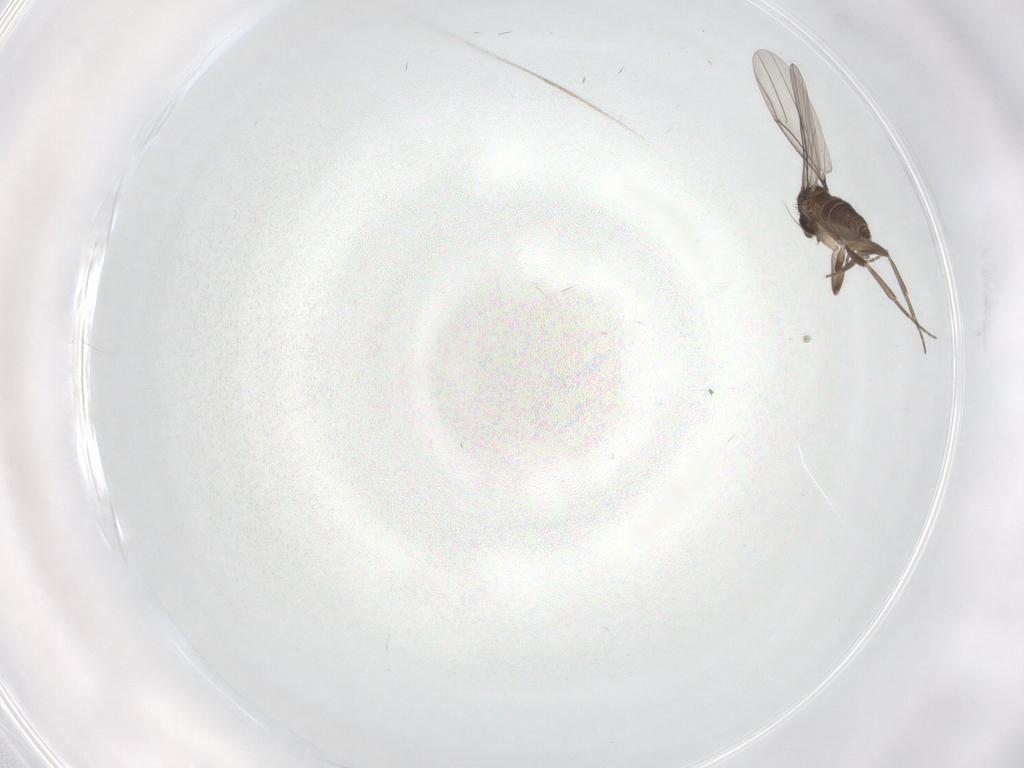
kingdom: Animalia
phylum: Arthropoda
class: Insecta
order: Diptera
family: Phoridae
